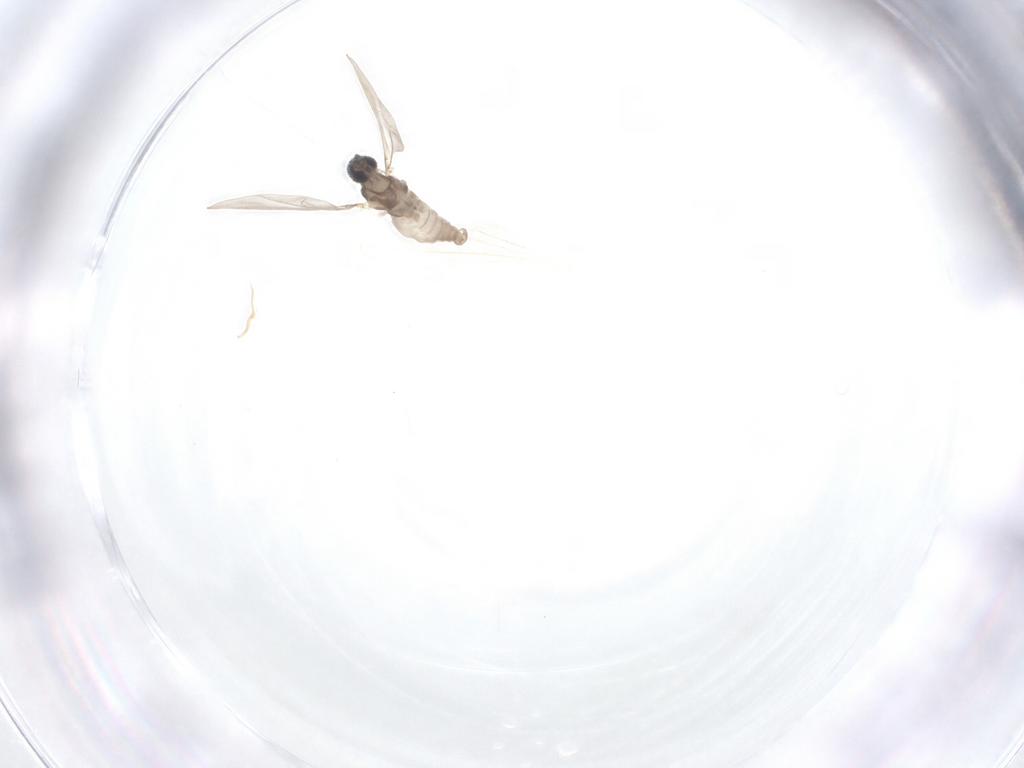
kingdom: Animalia
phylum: Arthropoda
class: Insecta
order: Diptera
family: Cecidomyiidae
